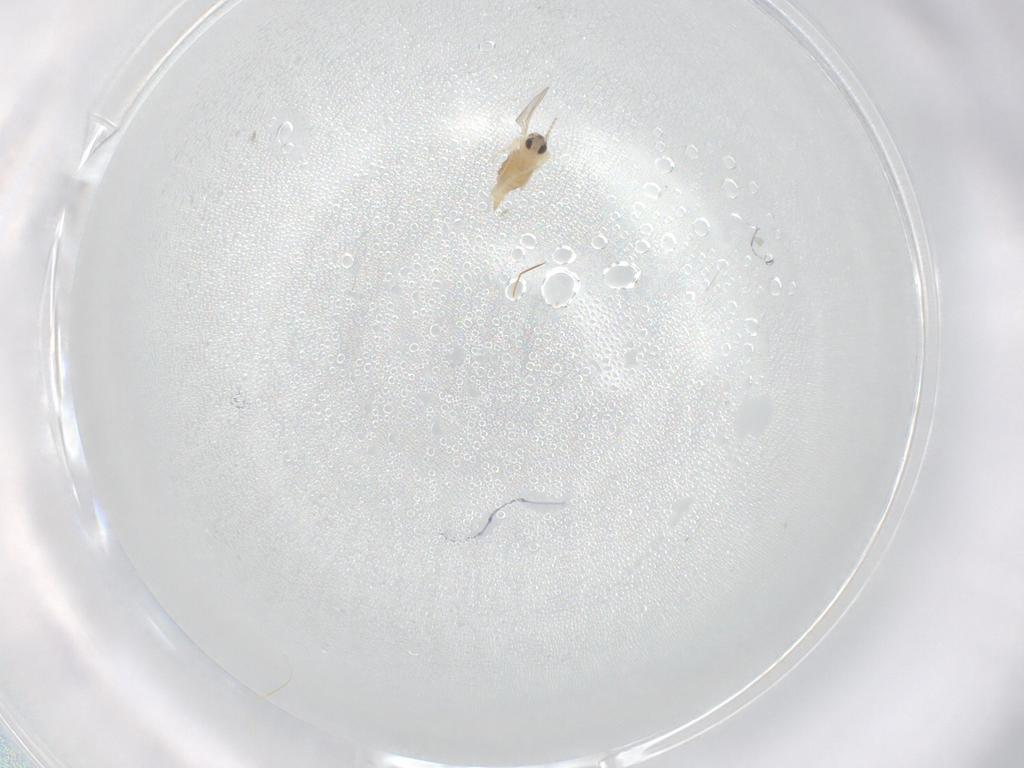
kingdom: Animalia
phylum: Arthropoda
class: Insecta
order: Diptera
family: Cecidomyiidae
